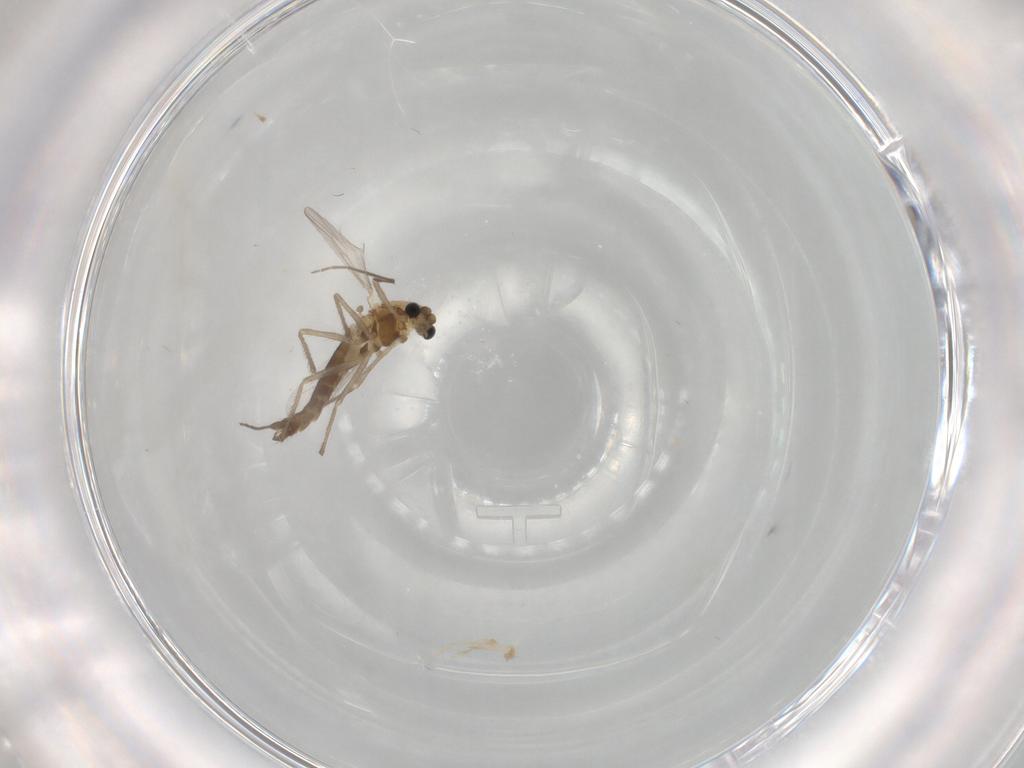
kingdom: Animalia
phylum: Arthropoda
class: Insecta
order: Diptera
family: Chironomidae
